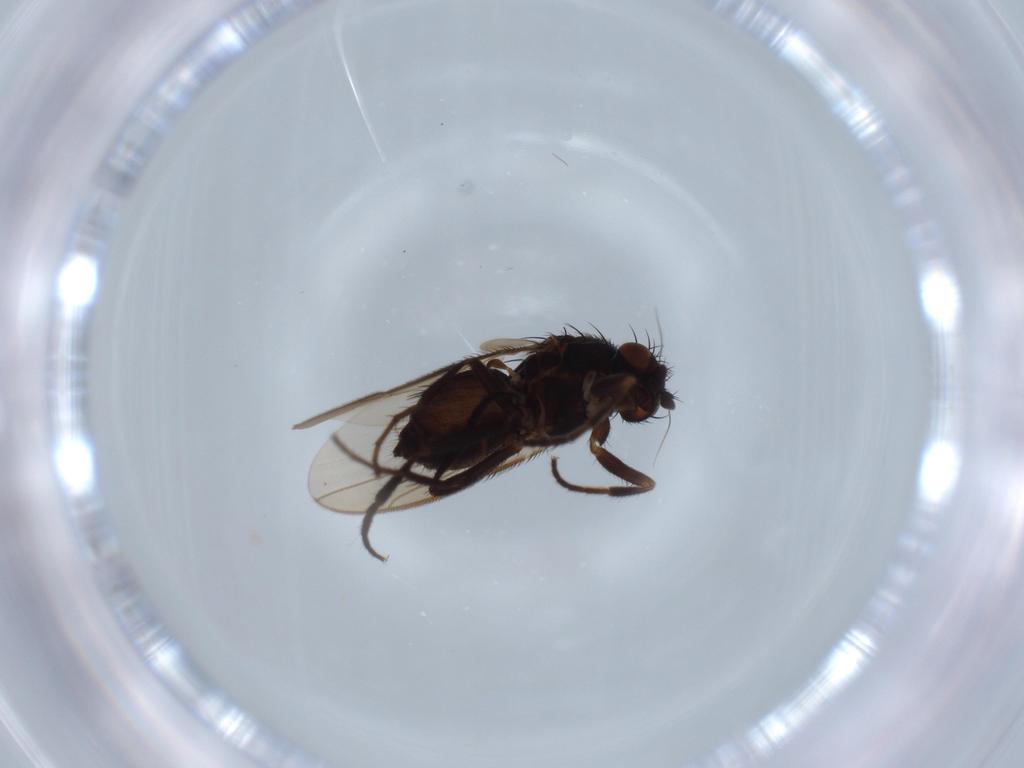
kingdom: Animalia
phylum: Arthropoda
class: Insecta
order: Diptera
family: Sphaeroceridae
